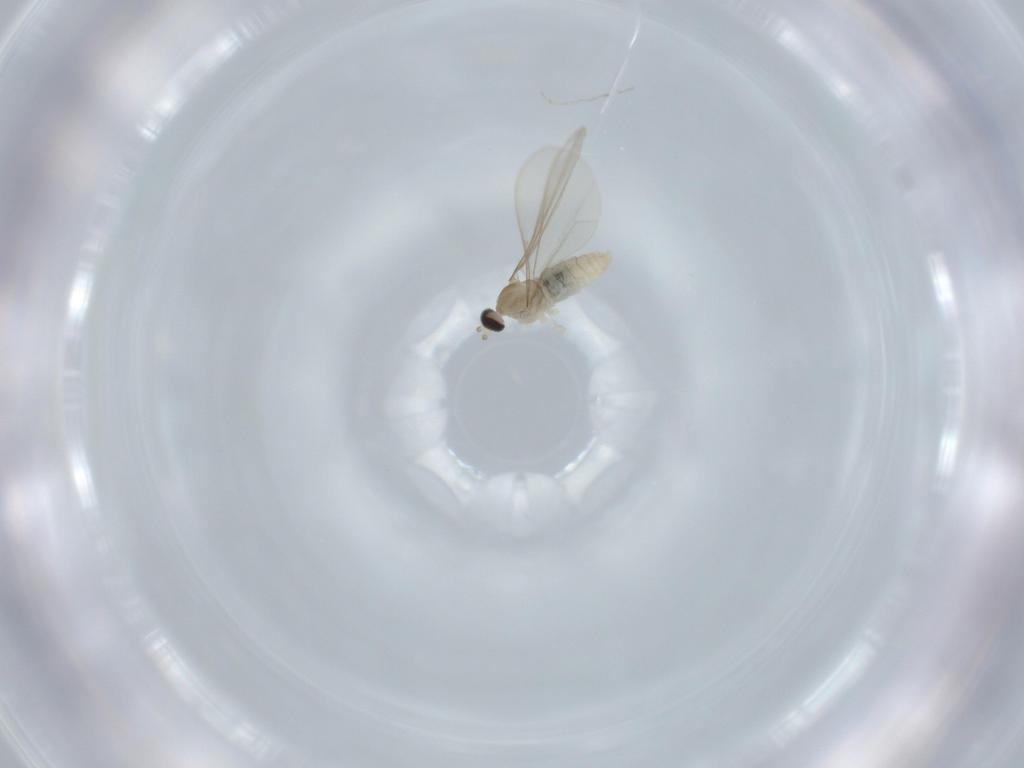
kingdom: Animalia
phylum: Arthropoda
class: Insecta
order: Diptera
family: Cecidomyiidae
